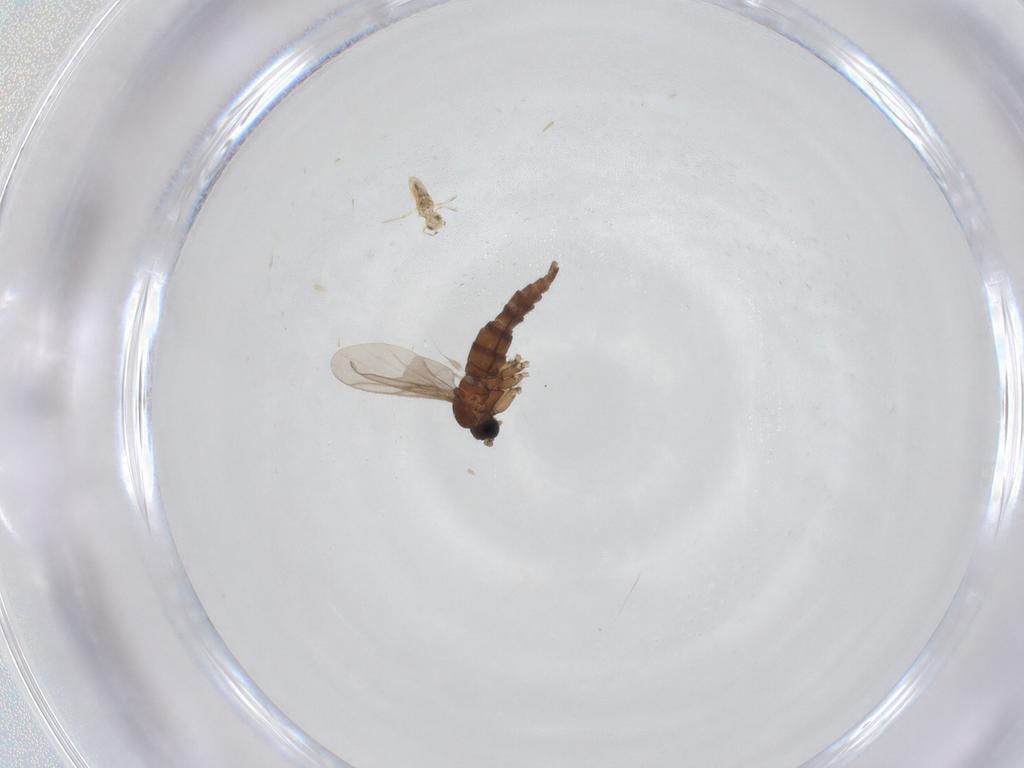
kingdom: Animalia
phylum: Arthropoda
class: Insecta
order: Diptera
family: Sciaridae
